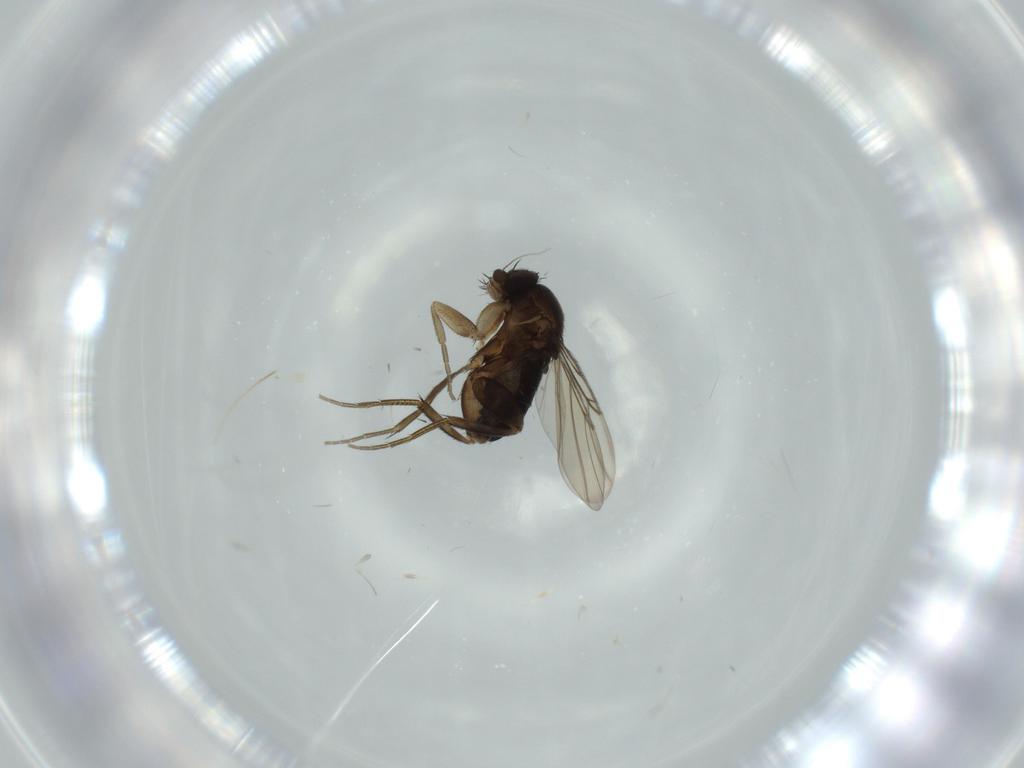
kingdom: Animalia
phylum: Arthropoda
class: Insecta
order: Diptera
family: Phoridae
